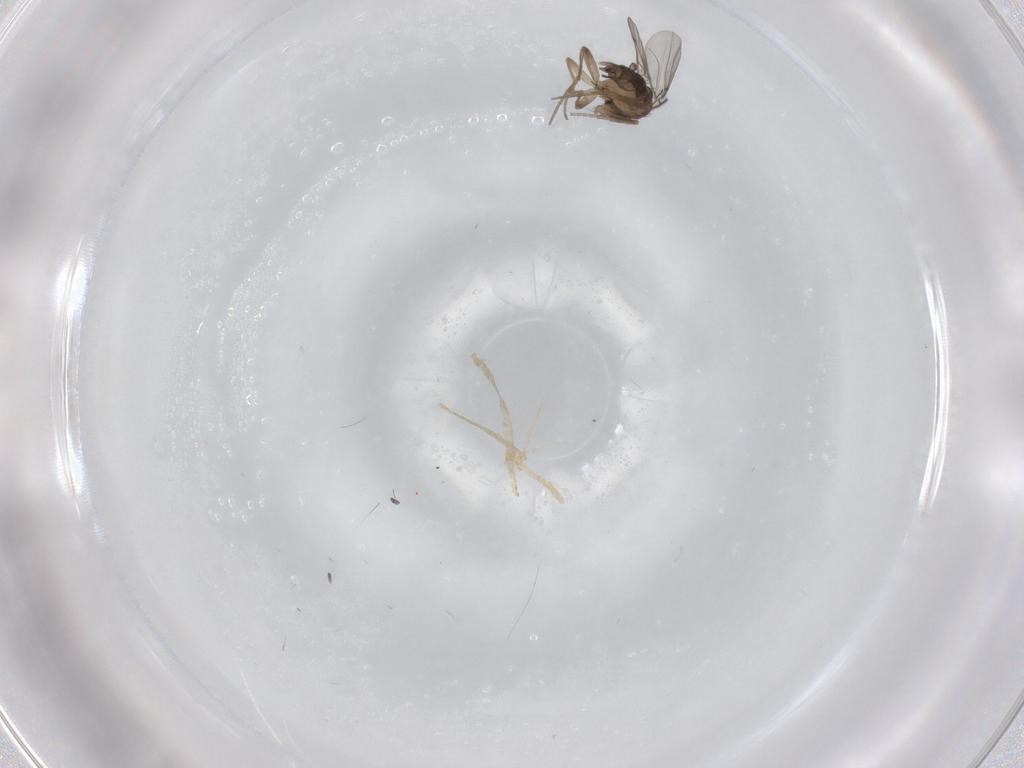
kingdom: Animalia
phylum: Arthropoda
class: Insecta
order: Diptera
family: Phoridae
